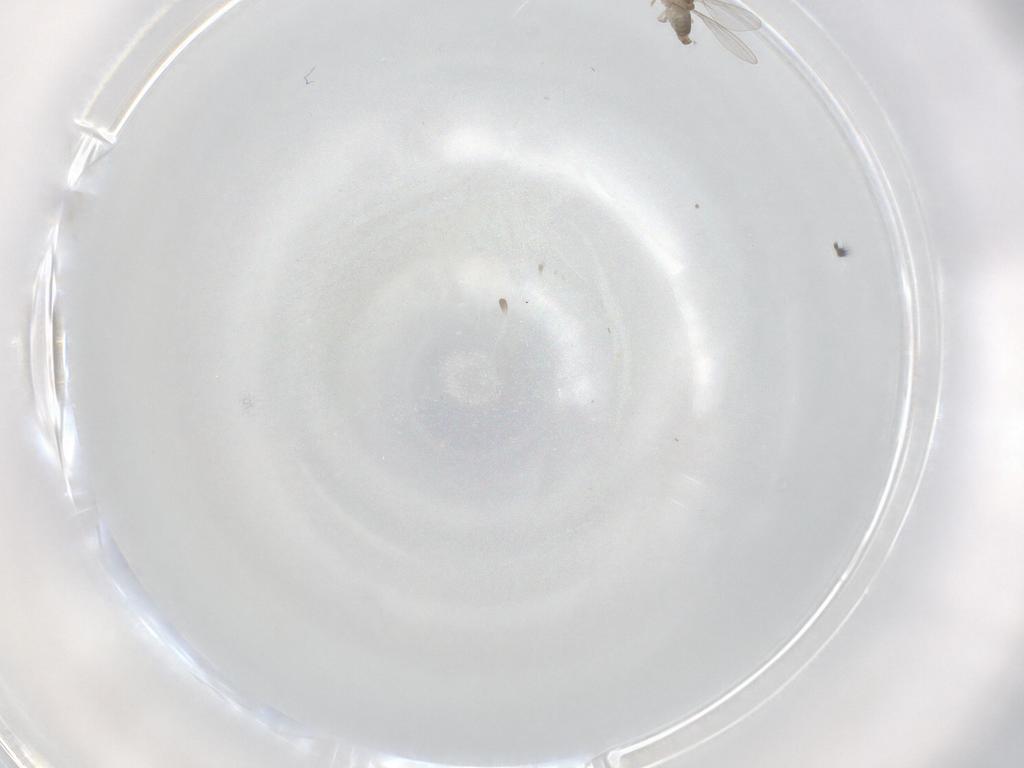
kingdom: Animalia
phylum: Arthropoda
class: Insecta
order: Diptera
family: Cecidomyiidae
